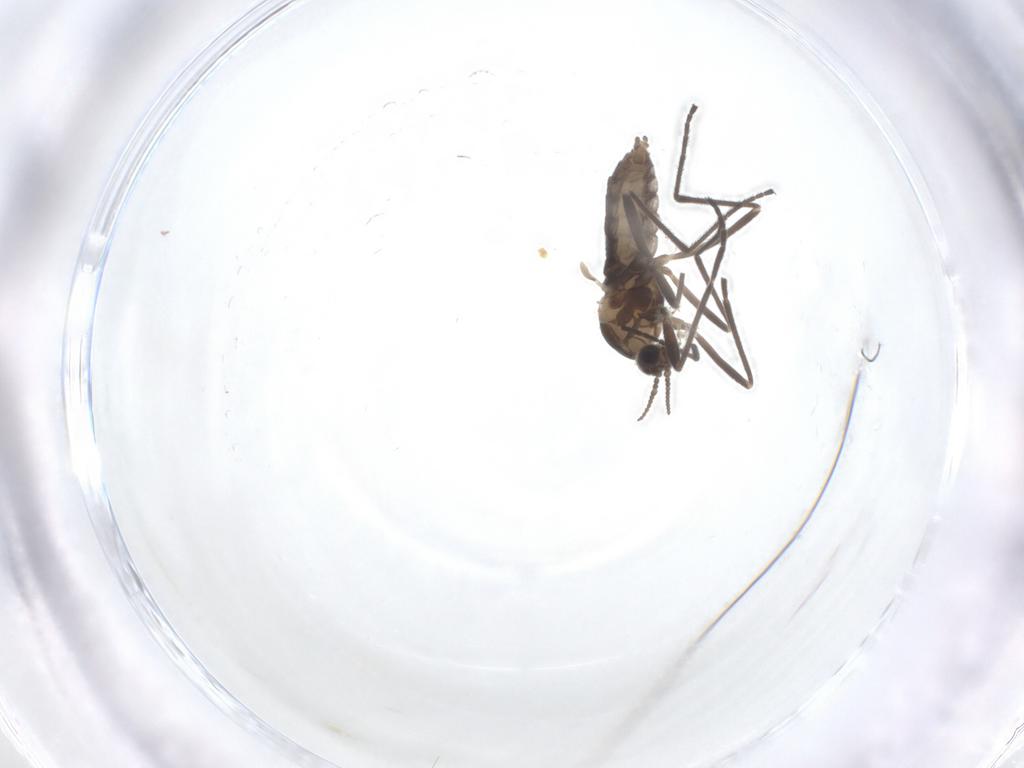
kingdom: Animalia
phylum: Arthropoda
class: Insecta
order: Diptera
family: Cecidomyiidae
